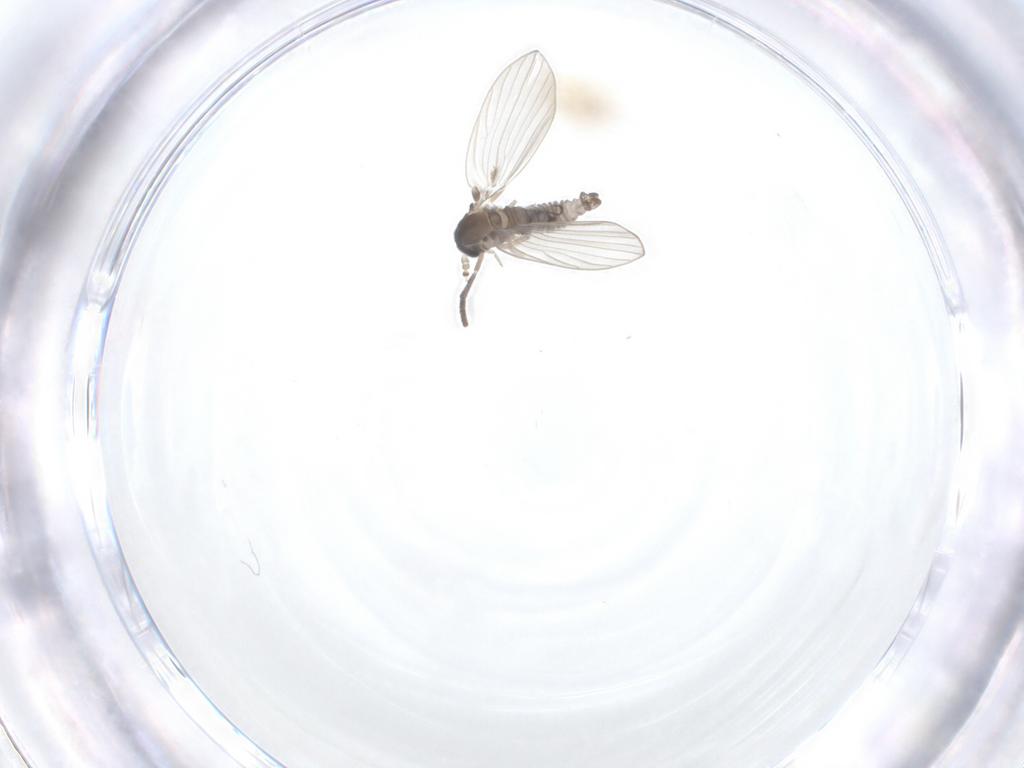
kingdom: Animalia
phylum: Arthropoda
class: Insecta
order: Diptera
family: Psychodidae
